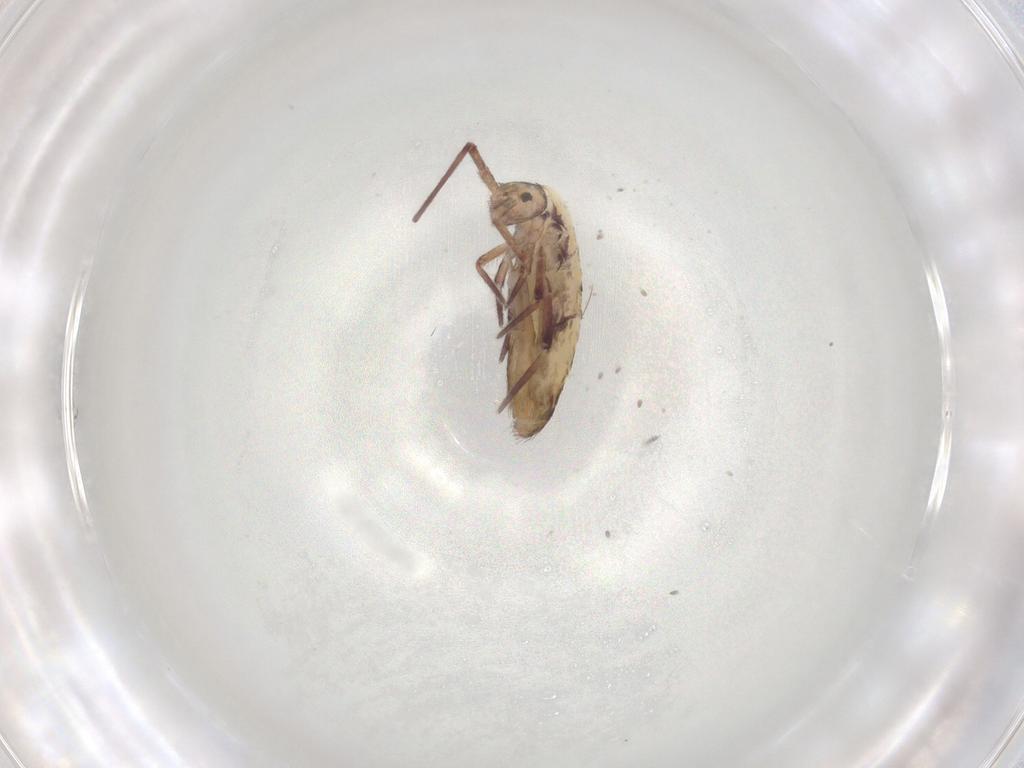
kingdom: Animalia
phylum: Arthropoda
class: Collembola
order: Entomobryomorpha
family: Entomobryidae
